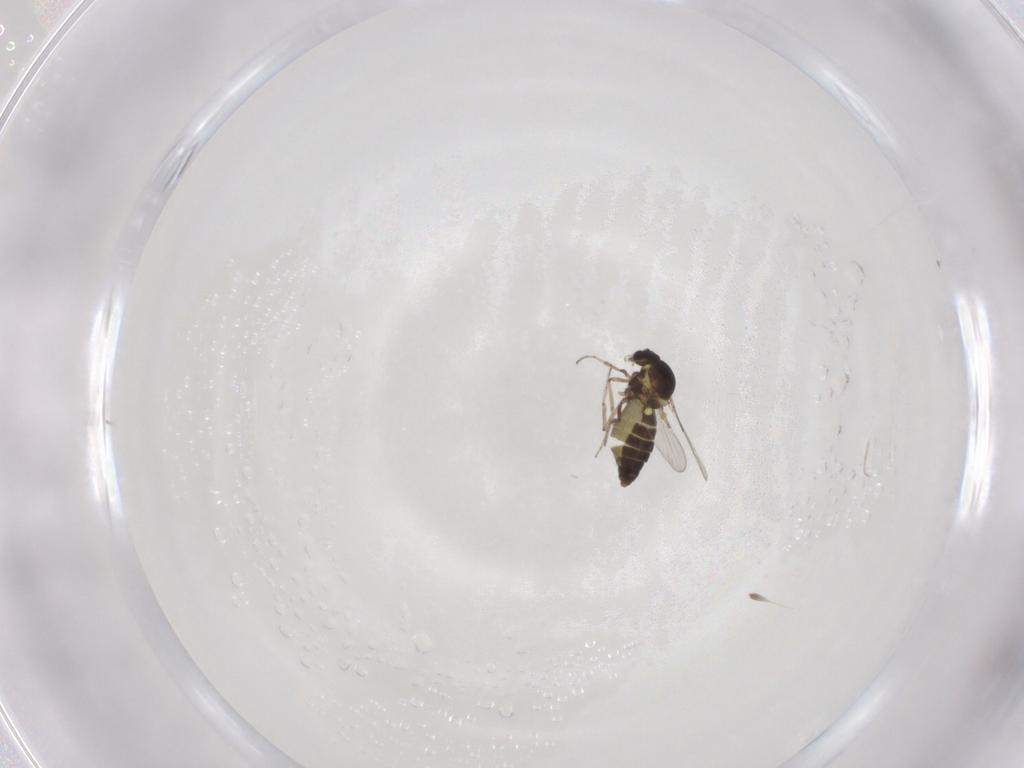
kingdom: Animalia
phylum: Arthropoda
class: Insecta
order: Diptera
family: Ceratopogonidae
